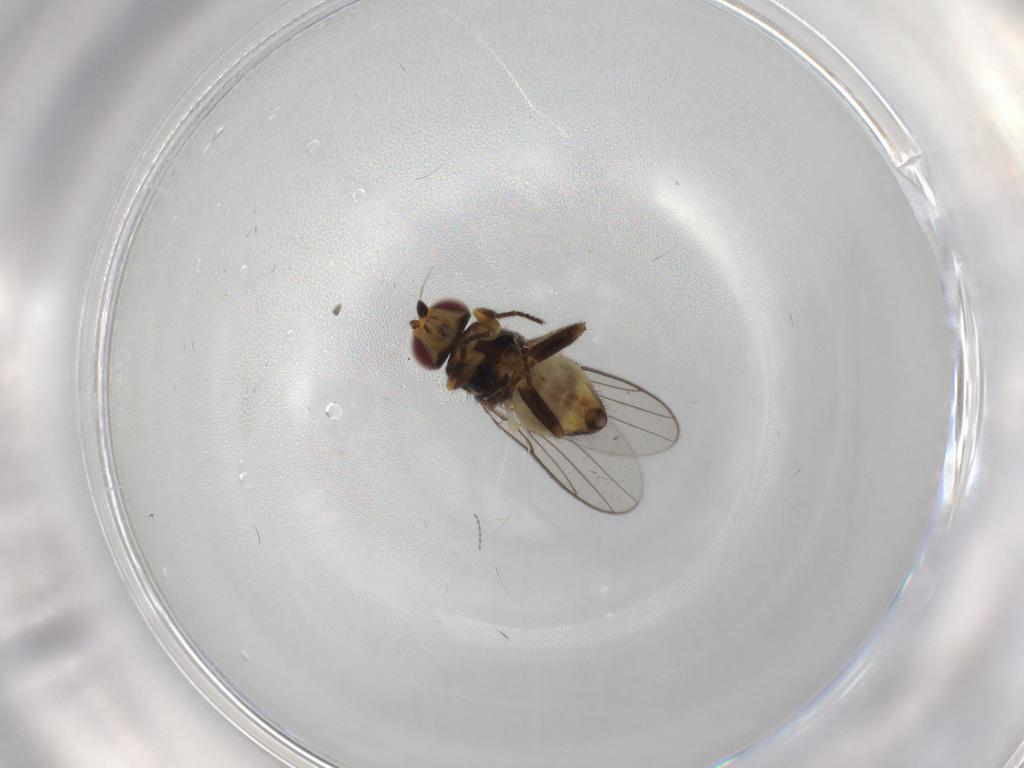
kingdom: Animalia
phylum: Arthropoda
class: Insecta
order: Diptera
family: Chloropidae
